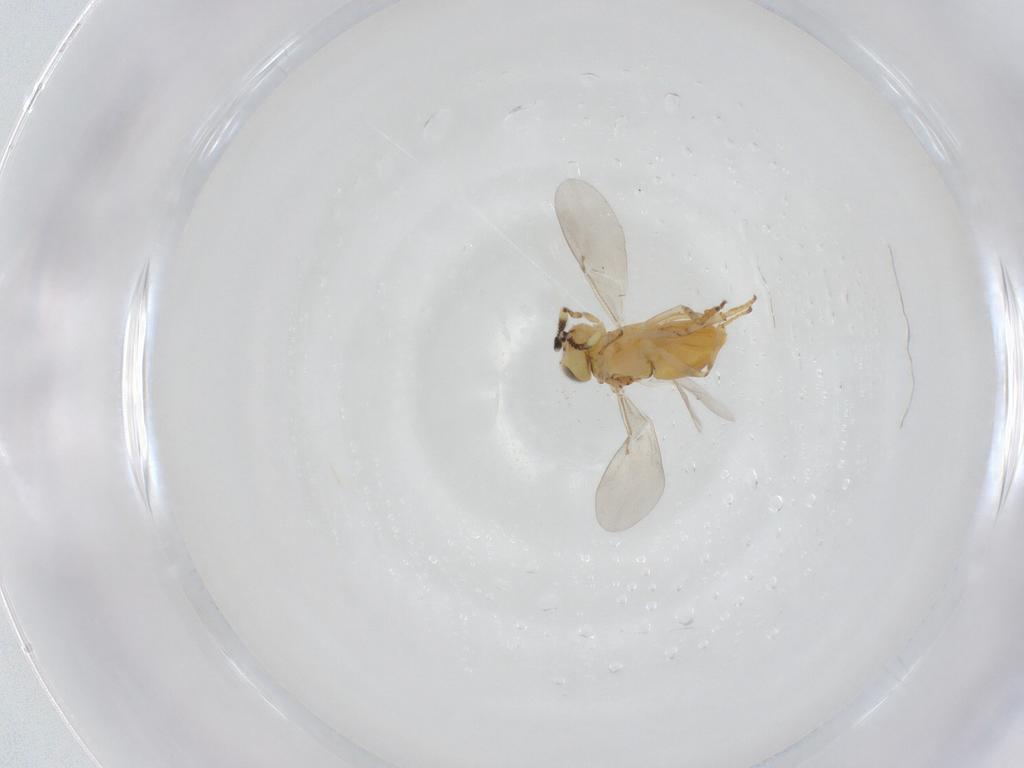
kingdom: Animalia
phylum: Arthropoda
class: Insecta
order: Hymenoptera
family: Encyrtidae
